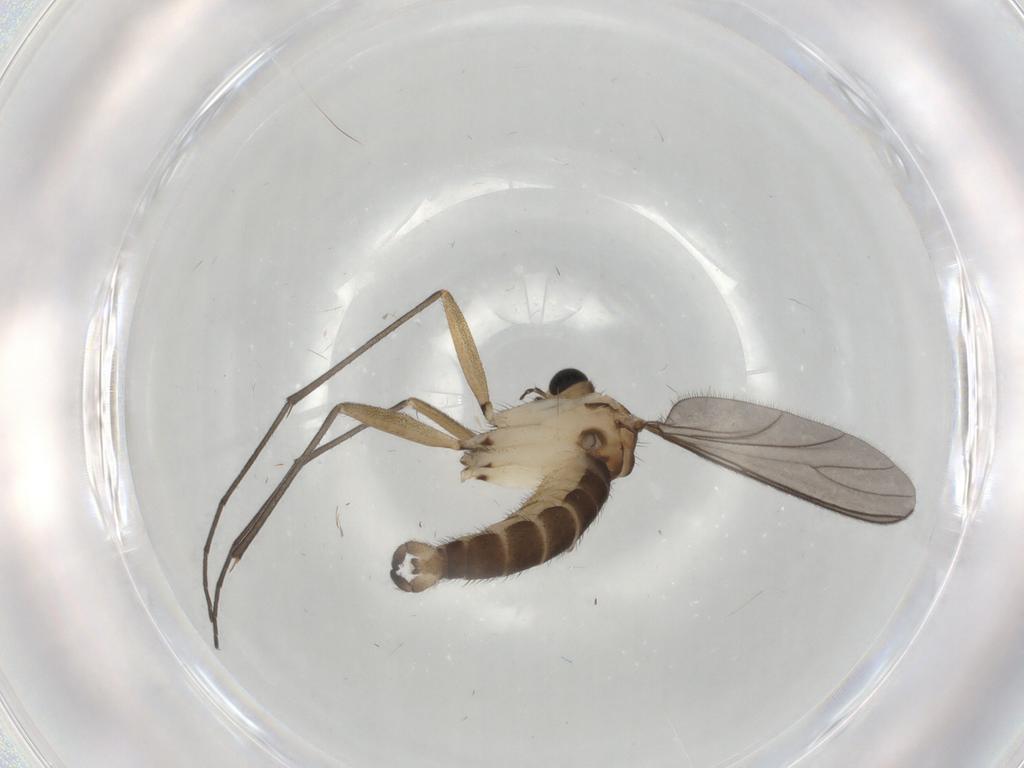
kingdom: Animalia
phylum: Arthropoda
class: Insecta
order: Diptera
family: Sciaridae
